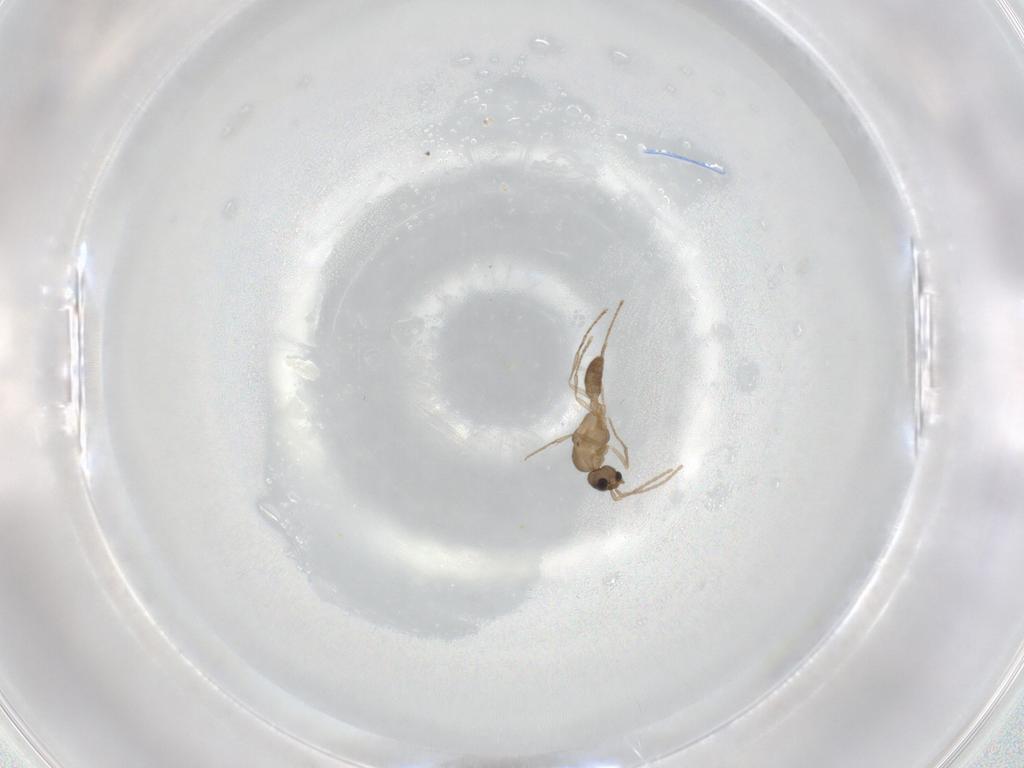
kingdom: Animalia
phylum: Arthropoda
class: Insecta
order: Hymenoptera
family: Formicidae
